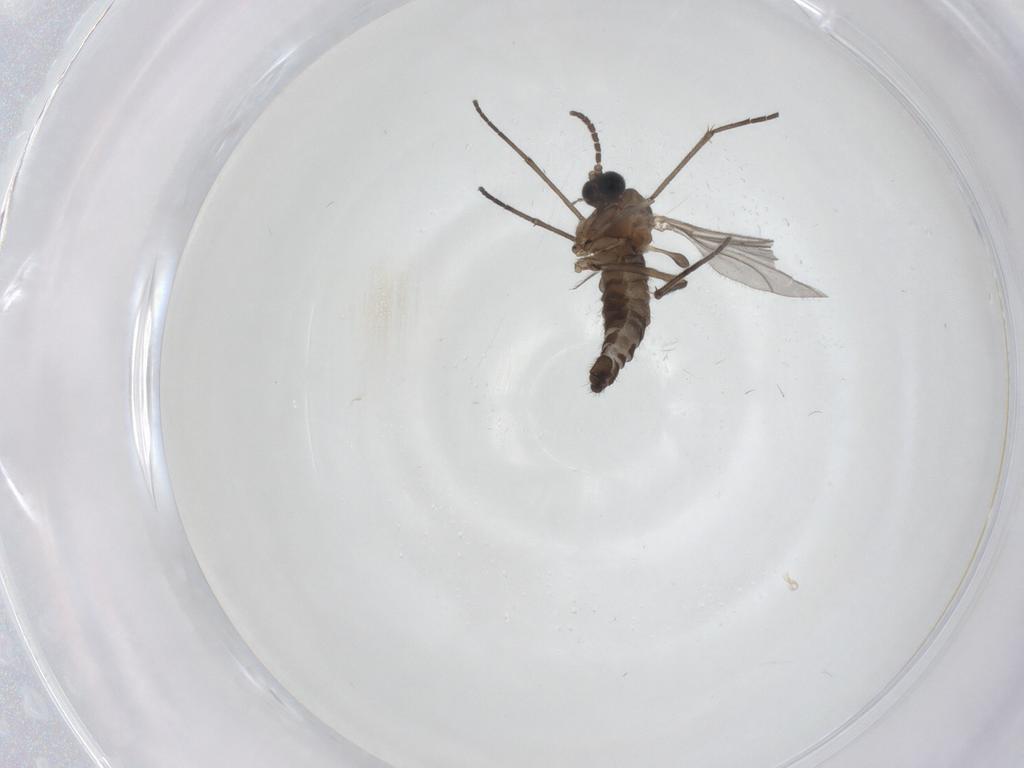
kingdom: Animalia
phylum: Arthropoda
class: Insecta
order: Diptera
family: Sciaridae
